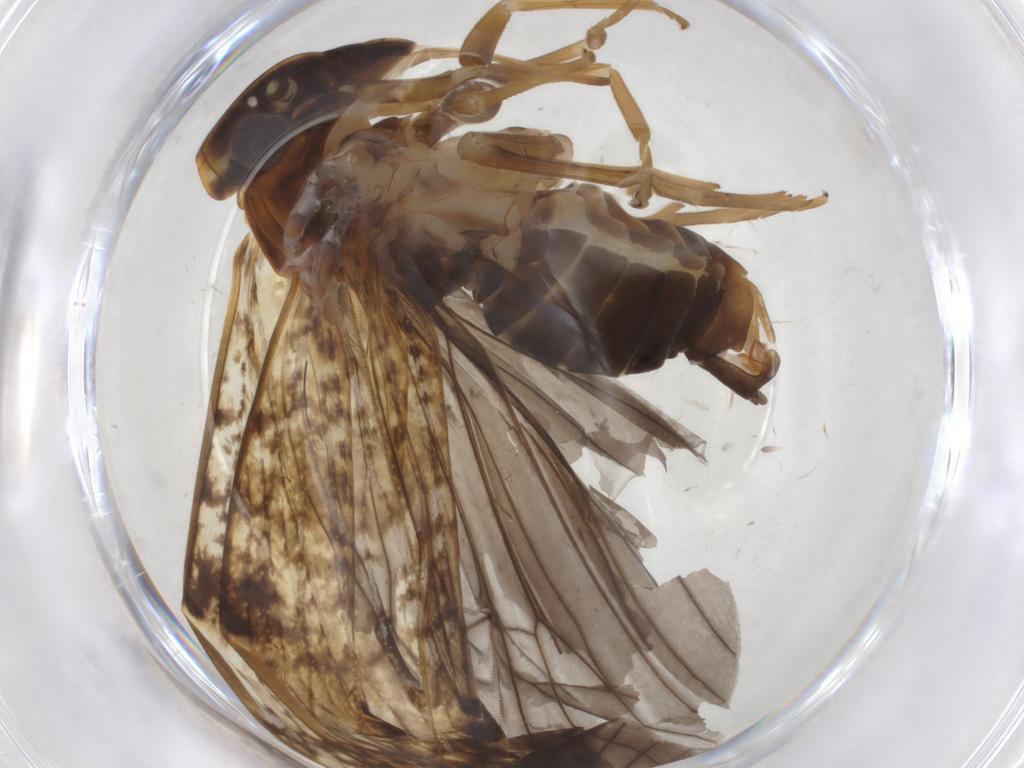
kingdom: Animalia
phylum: Arthropoda
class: Insecta
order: Hemiptera
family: Cixiidae
